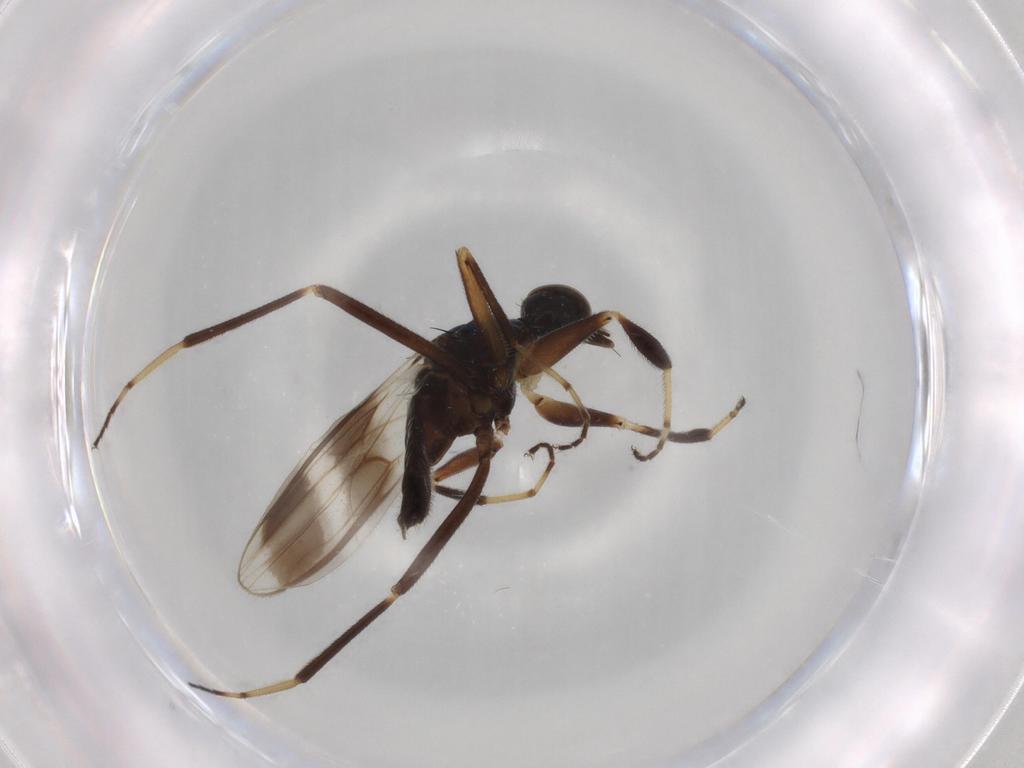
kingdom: Animalia
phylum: Arthropoda
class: Insecta
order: Diptera
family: Hybotidae
